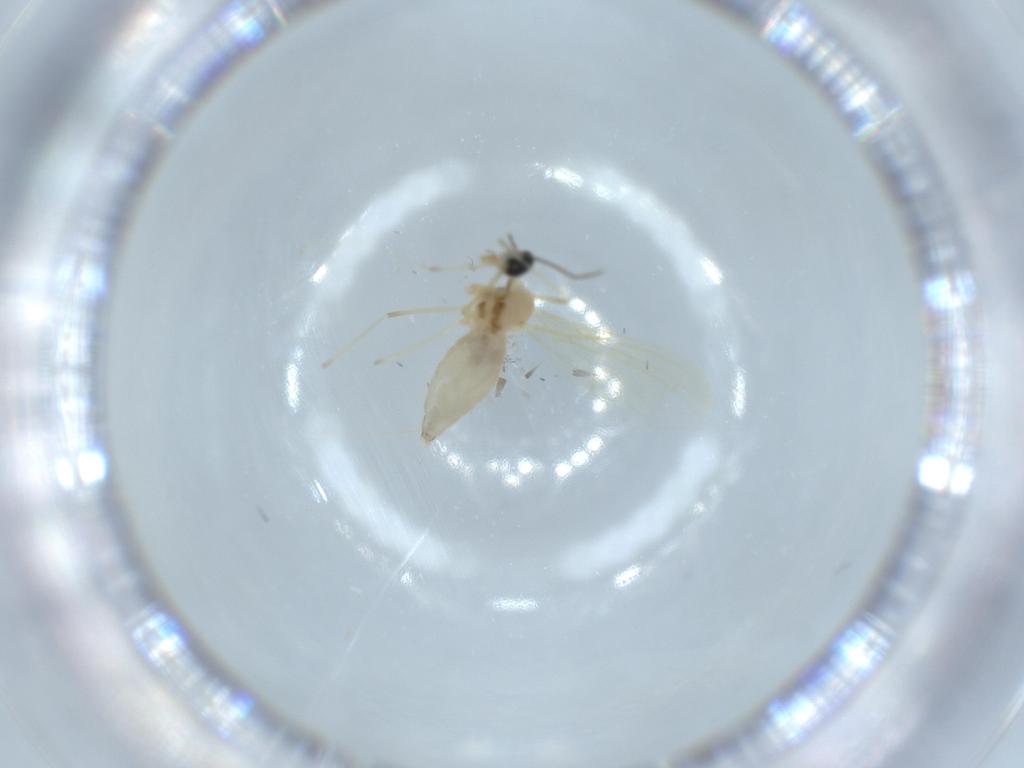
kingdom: Animalia
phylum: Arthropoda
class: Insecta
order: Diptera
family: Cecidomyiidae
